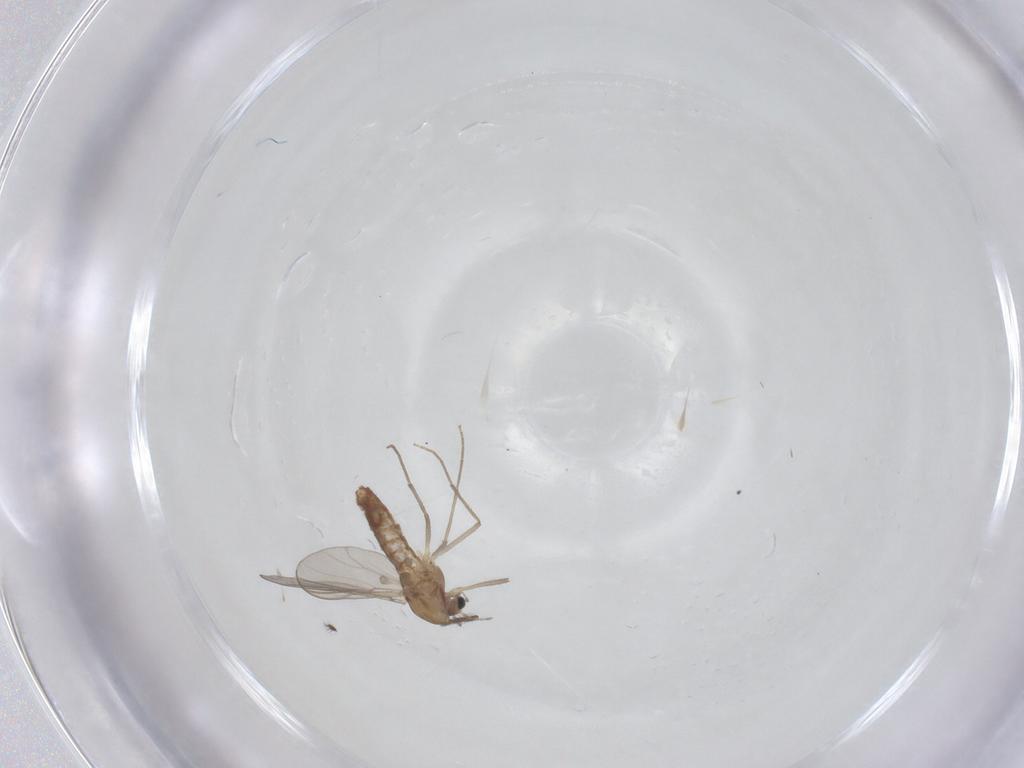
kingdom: Animalia
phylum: Arthropoda
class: Insecta
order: Diptera
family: Chironomidae
